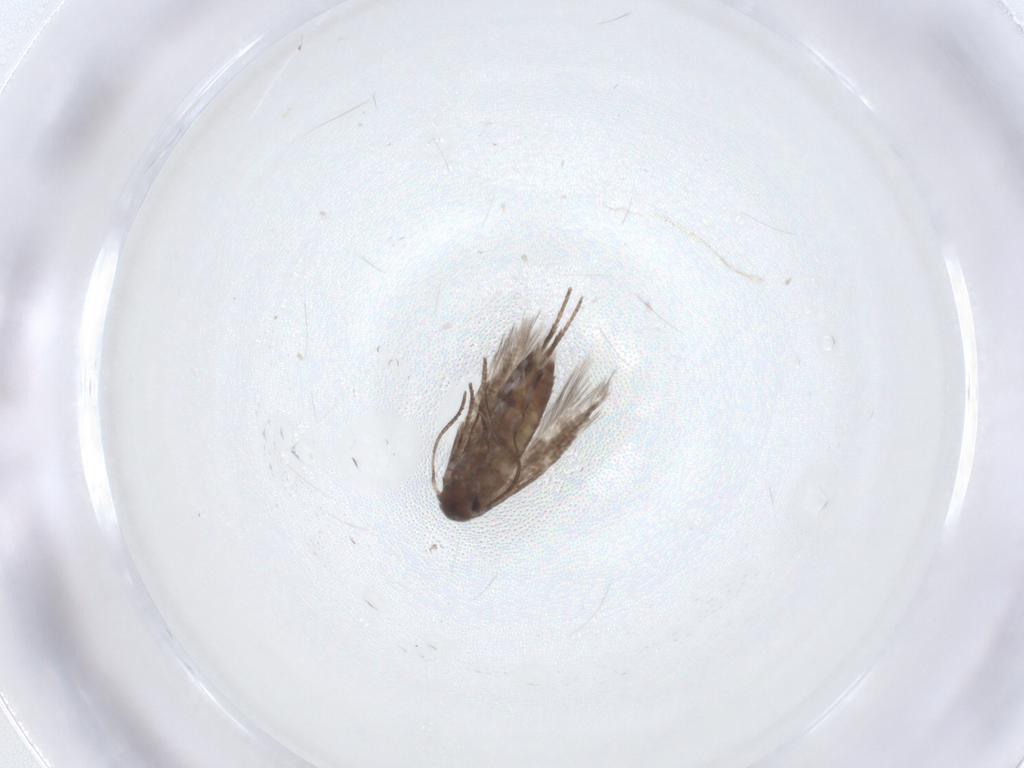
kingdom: Animalia
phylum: Arthropoda
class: Insecta
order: Lepidoptera
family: Lyonetiidae
